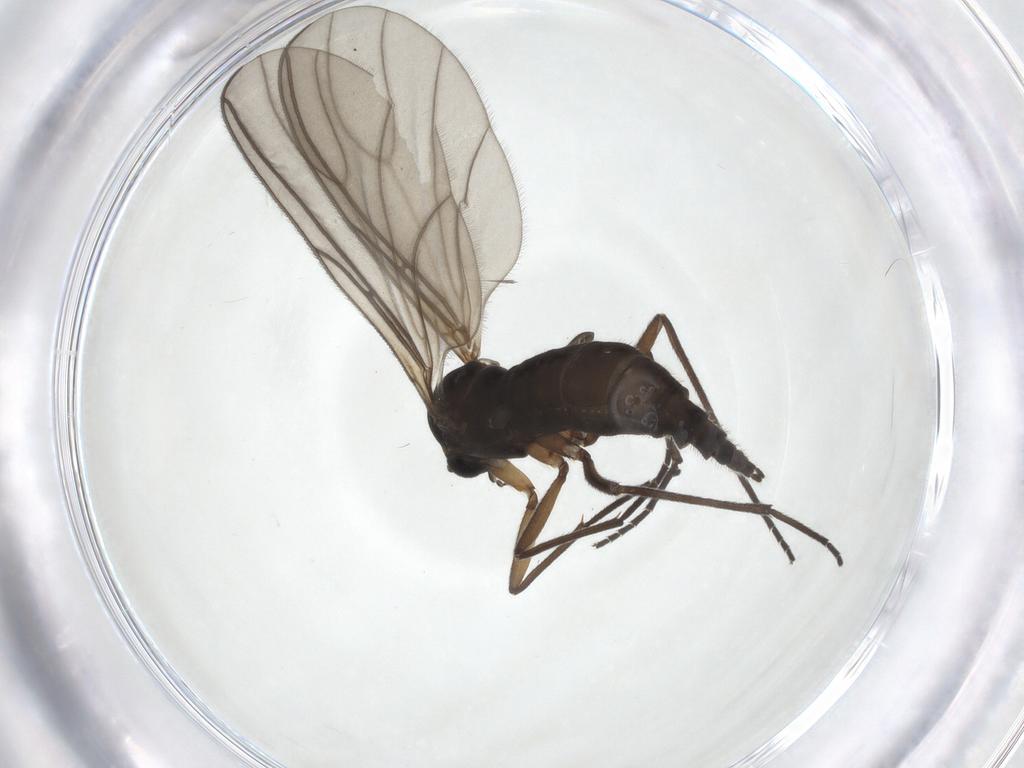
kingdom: Animalia
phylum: Arthropoda
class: Insecta
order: Diptera
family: Sciaridae
